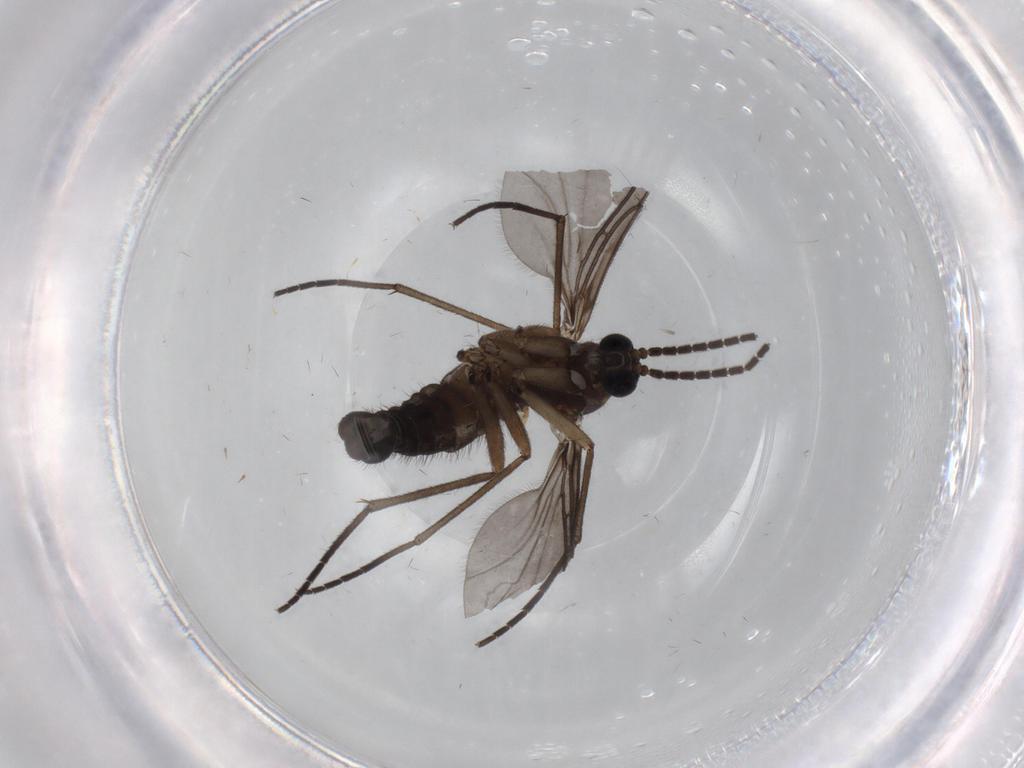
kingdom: Animalia
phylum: Arthropoda
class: Insecta
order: Diptera
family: Sciaridae
